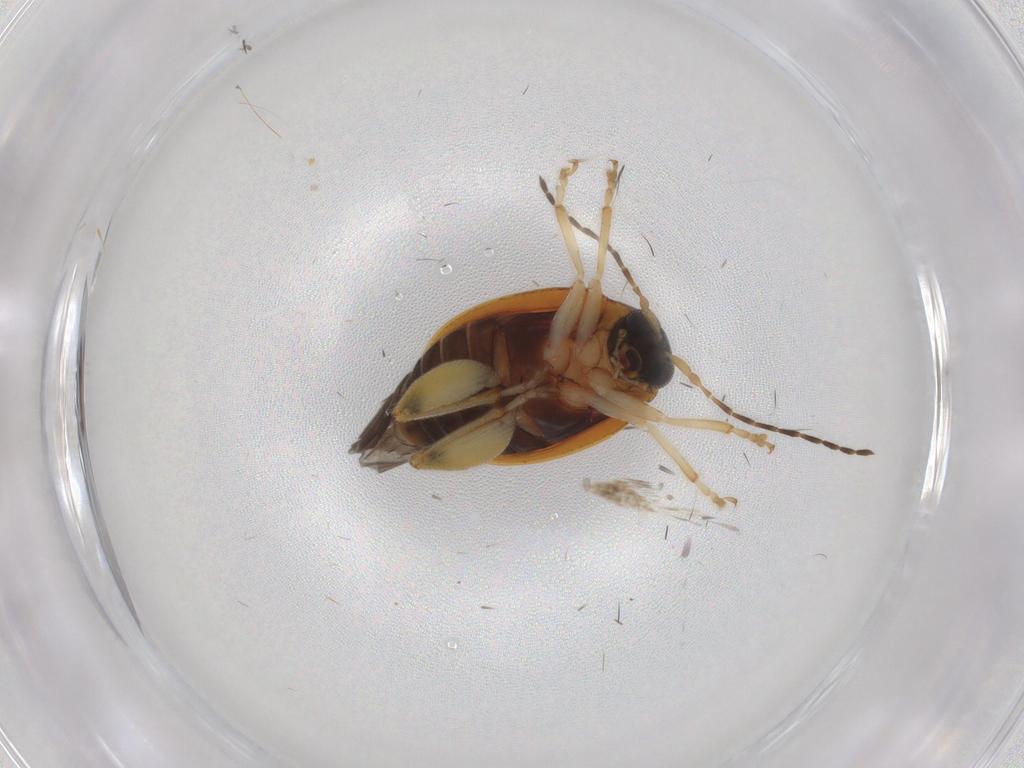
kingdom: Animalia
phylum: Arthropoda
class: Insecta
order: Coleoptera
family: Chrysomelidae
